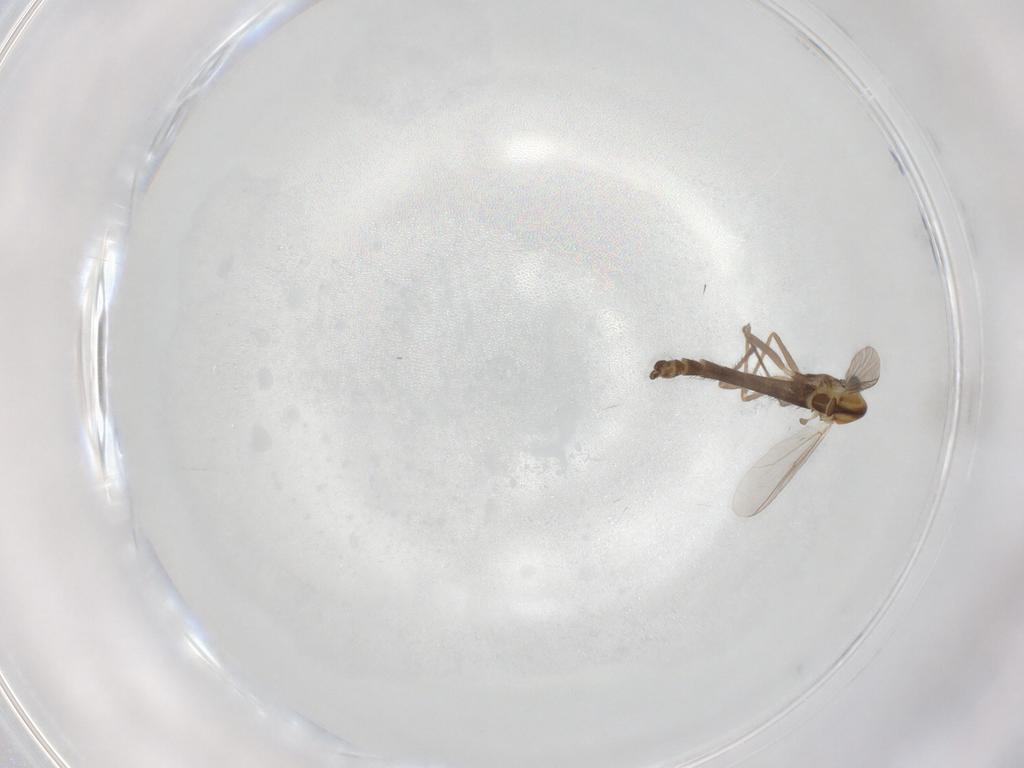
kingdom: Animalia
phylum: Arthropoda
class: Insecta
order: Diptera
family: Chironomidae
